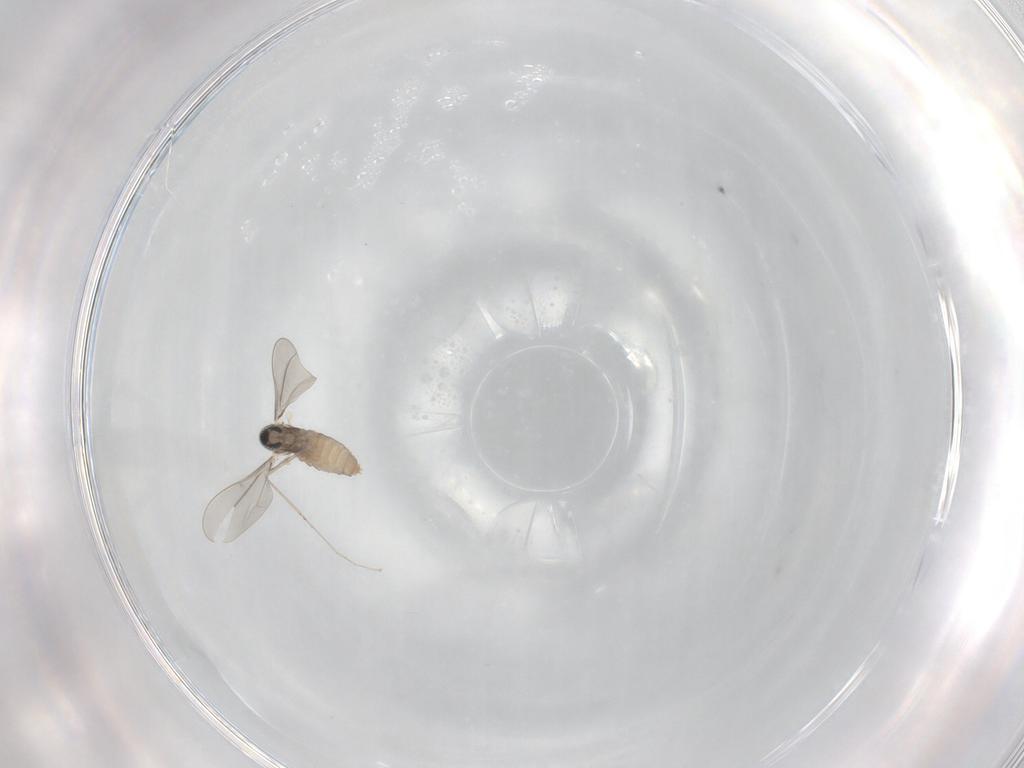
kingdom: Animalia
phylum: Arthropoda
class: Insecta
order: Diptera
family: Cecidomyiidae
